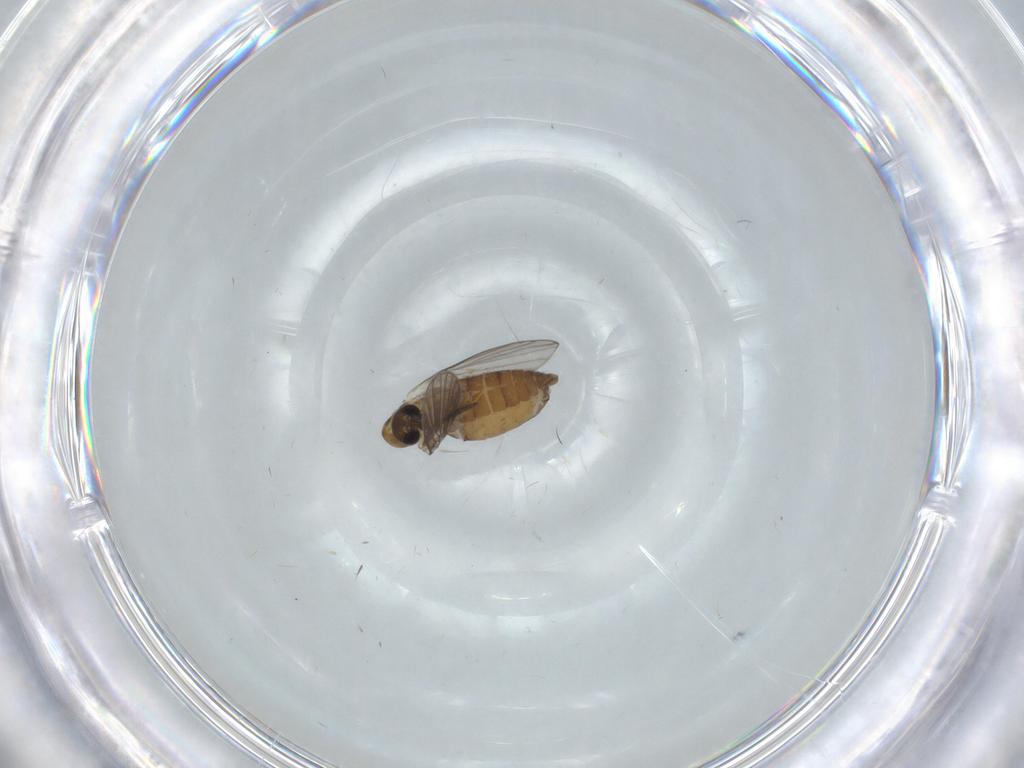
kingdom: Animalia
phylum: Arthropoda
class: Insecta
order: Diptera
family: Psychodidae
